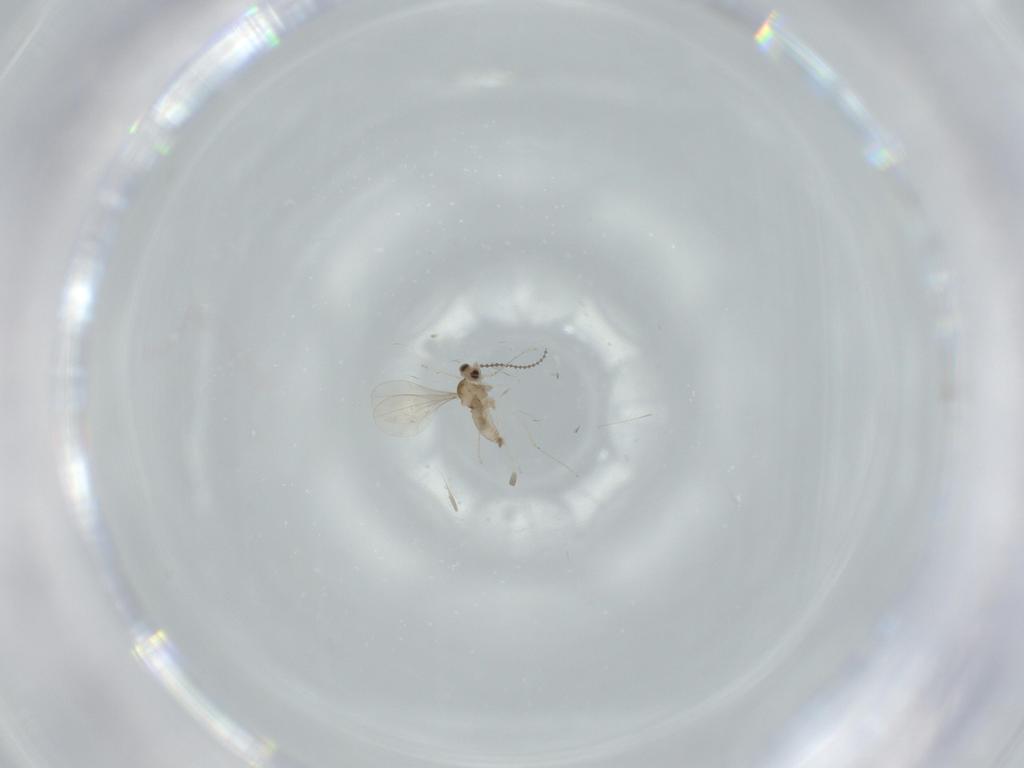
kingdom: Animalia
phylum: Arthropoda
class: Insecta
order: Diptera
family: Cecidomyiidae
